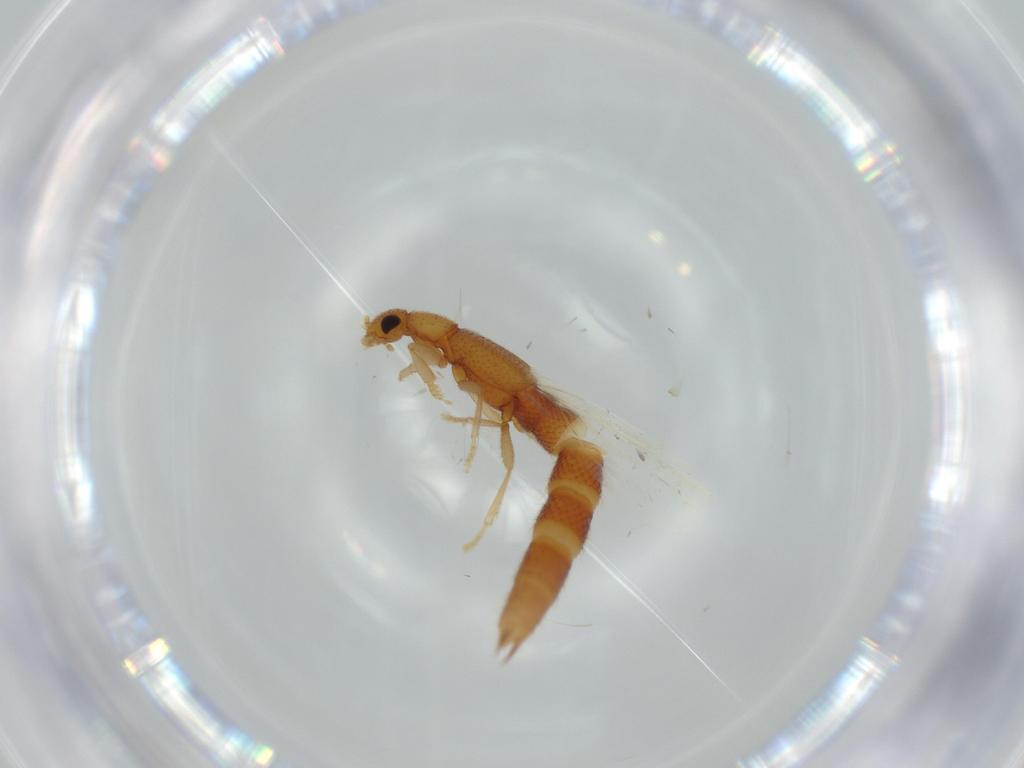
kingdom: Animalia
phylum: Arthropoda
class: Insecta
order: Coleoptera
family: Staphylinidae
